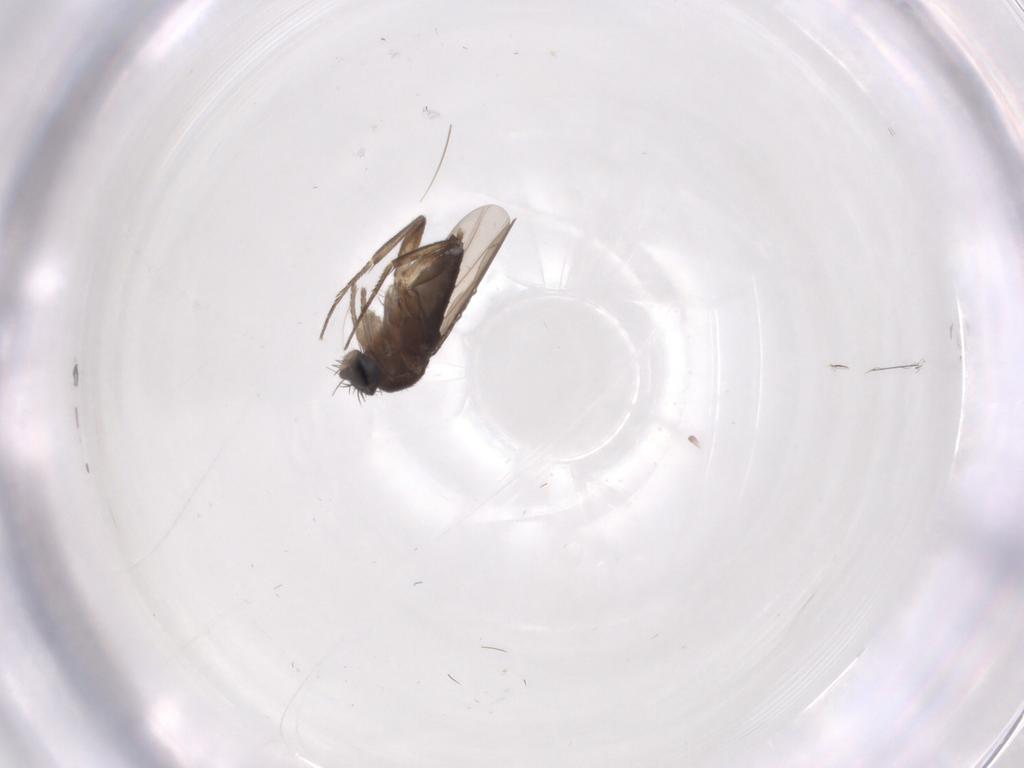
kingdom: Animalia
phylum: Arthropoda
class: Insecta
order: Diptera
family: Phoridae
